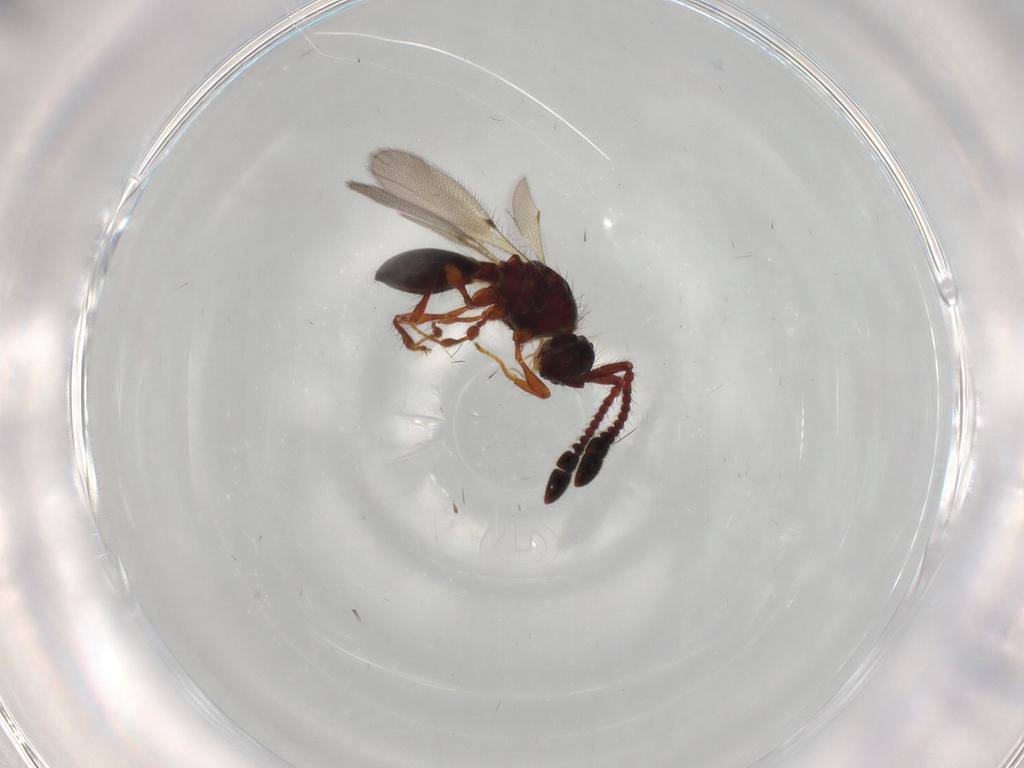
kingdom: Animalia
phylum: Arthropoda
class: Insecta
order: Hymenoptera
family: Diapriidae
